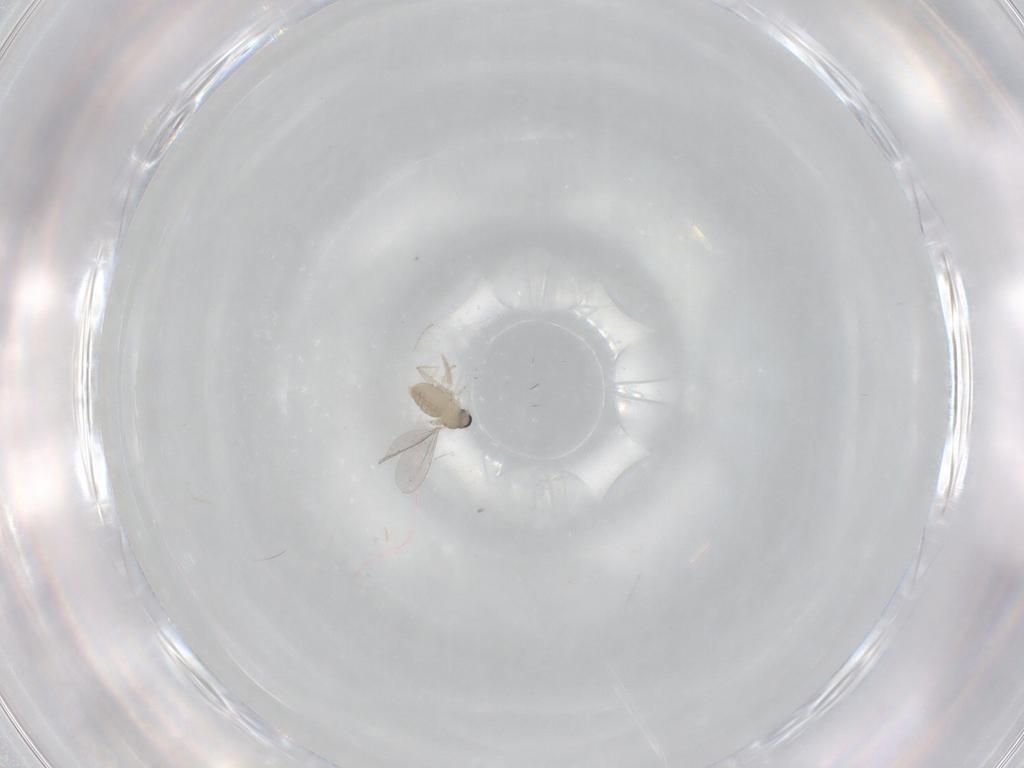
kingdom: Animalia
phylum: Arthropoda
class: Insecta
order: Diptera
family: Cecidomyiidae
